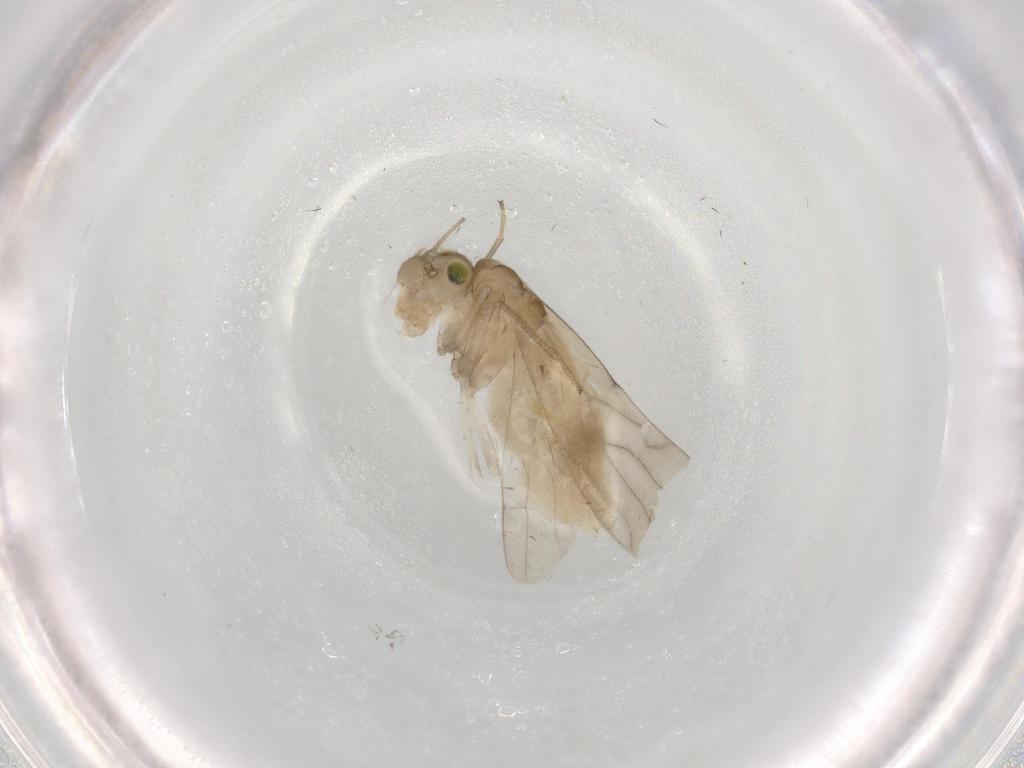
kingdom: Animalia
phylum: Arthropoda
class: Insecta
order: Psocodea
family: Caeciliusidae
